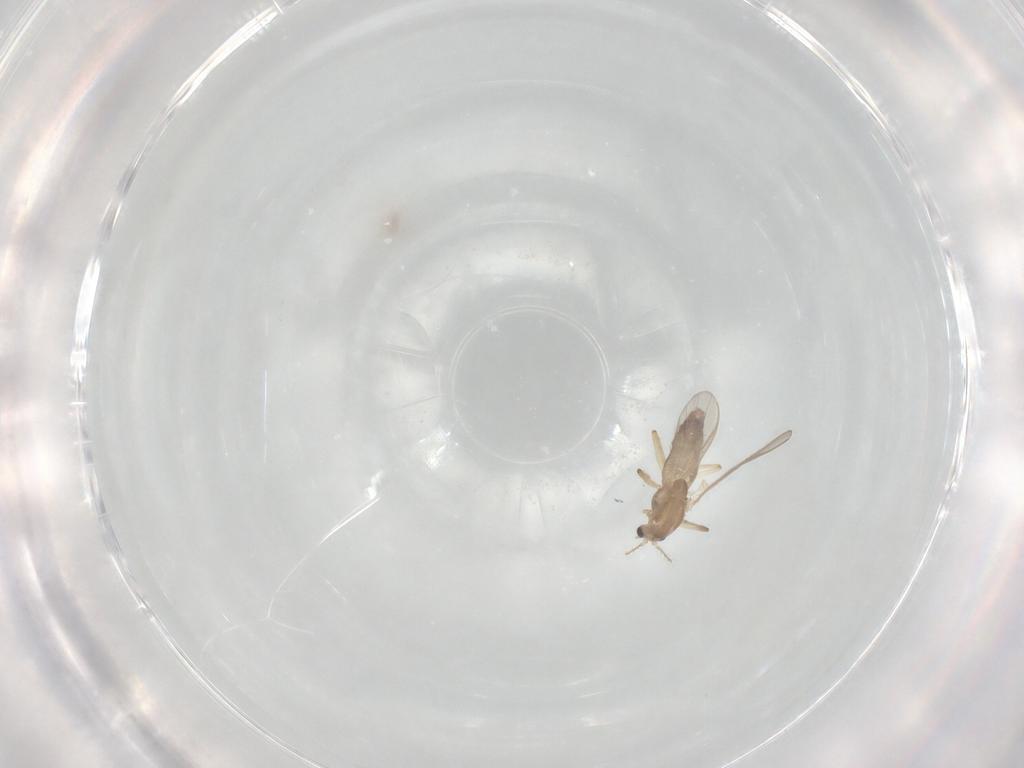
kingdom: Animalia
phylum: Arthropoda
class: Insecta
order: Diptera
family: Chironomidae
